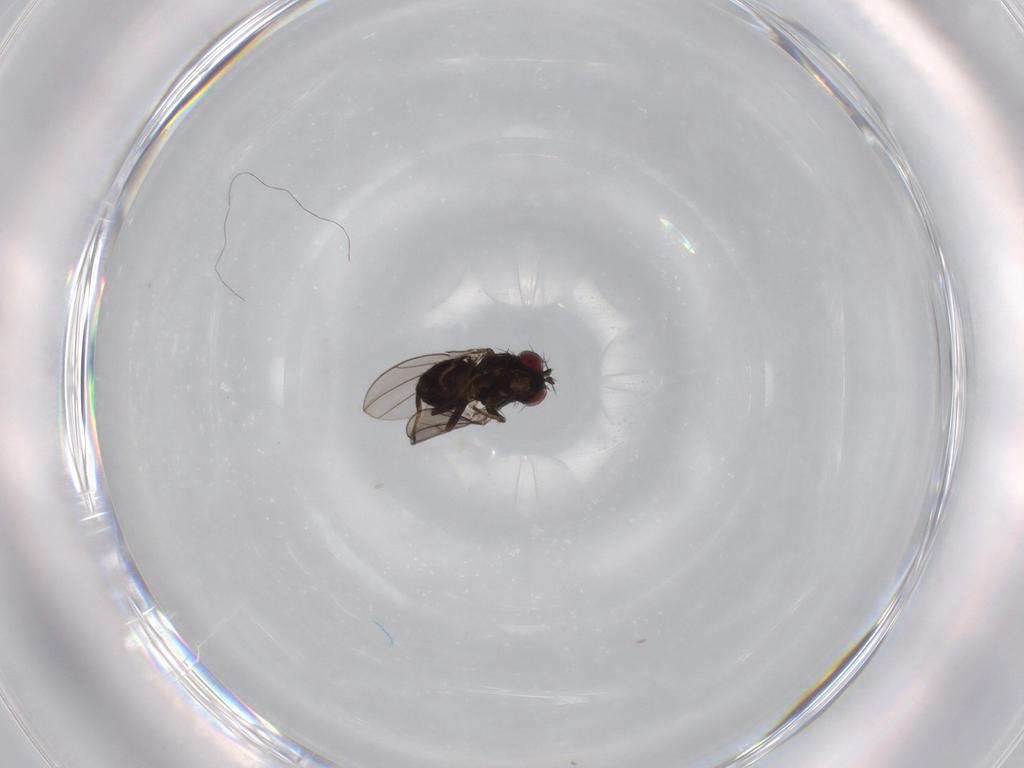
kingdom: Animalia
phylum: Arthropoda
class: Insecta
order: Diptera
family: Ephydridae
